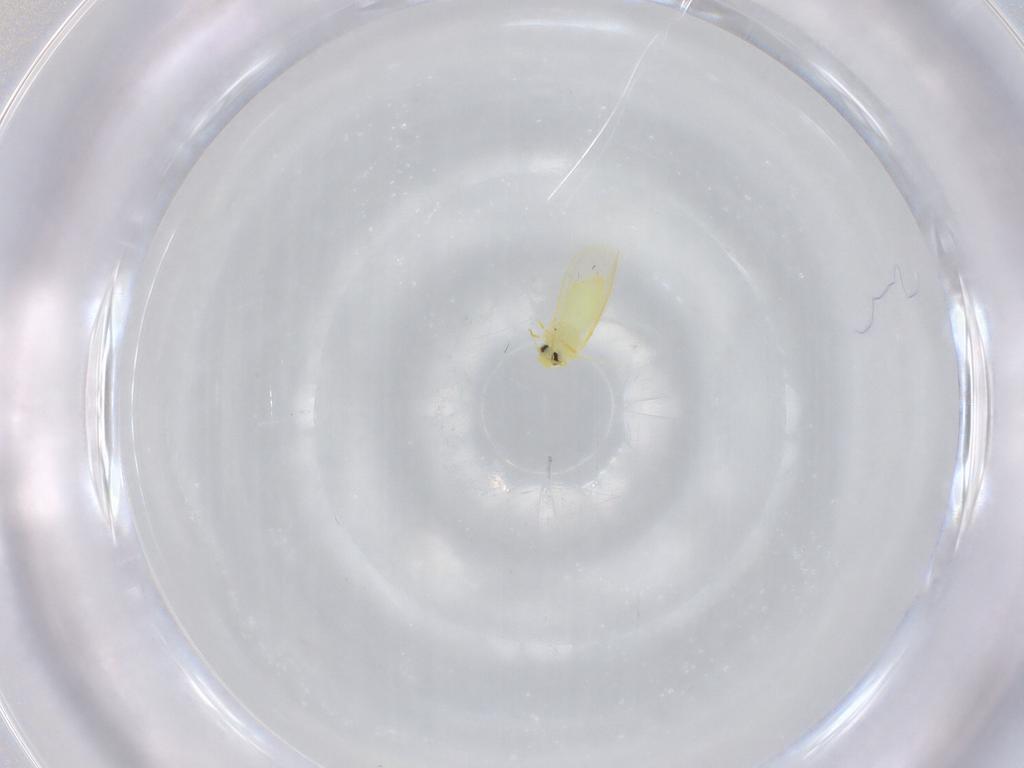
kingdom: Animalia
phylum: Arthropoda
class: Insecta
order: Hemiptera
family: Aleyrodidae
